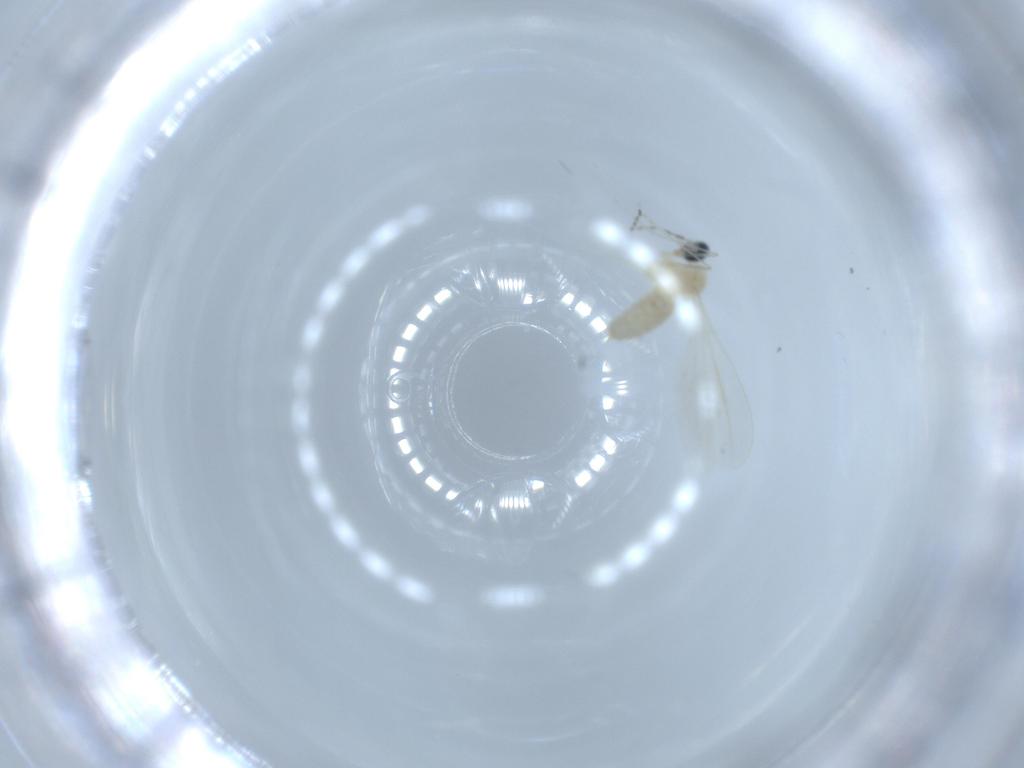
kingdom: Animalia
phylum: Arthropoda
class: Insecta
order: Diptera
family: Cecidomyiidae
